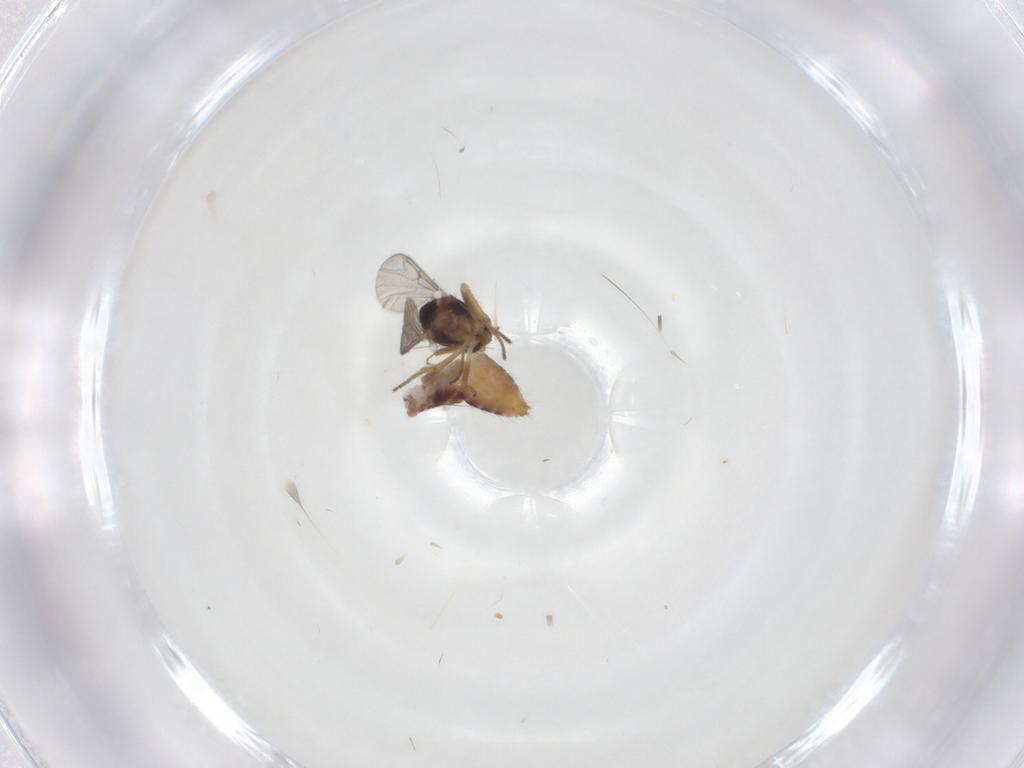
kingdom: Animalia
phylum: Arthropoda
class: Insecta
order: Diptera
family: Ceratopogonidae
